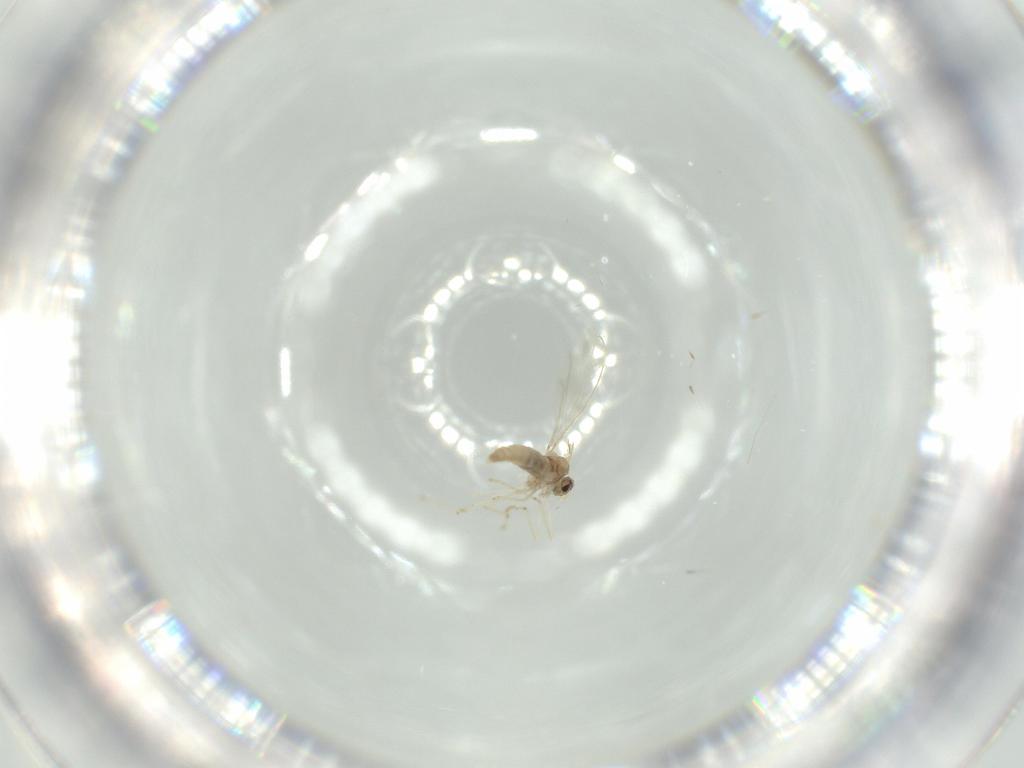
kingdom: Animalia
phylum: Arthropoda
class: Insecta
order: Diptera
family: Cecidomyiidae
